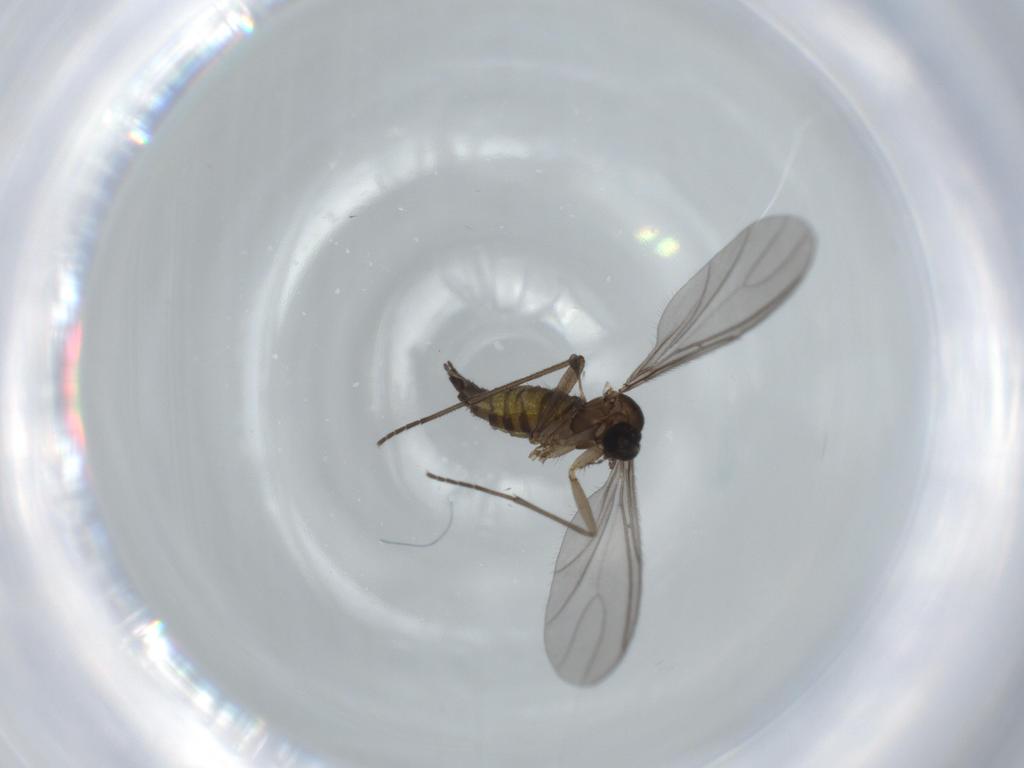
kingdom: Animalia
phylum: Arthropoda
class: Insecta
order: Diptera
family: Sciaridae
